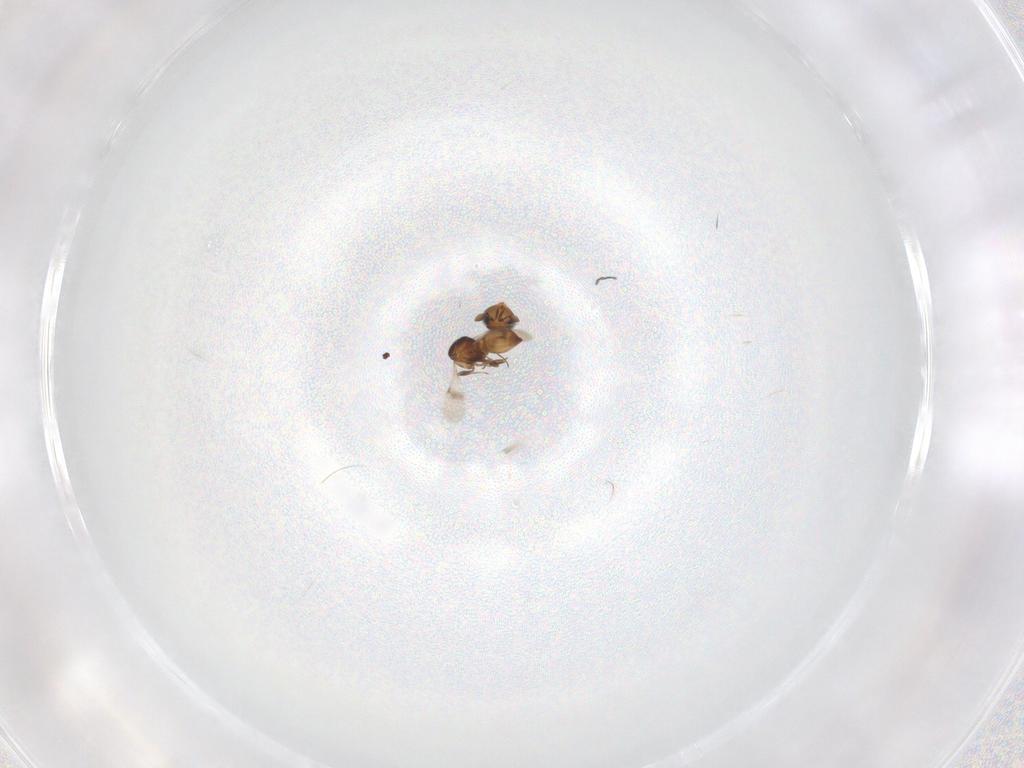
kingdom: Animalia
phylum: Arthropoda
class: Insecta
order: Hymenoptera
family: Scelionidae
